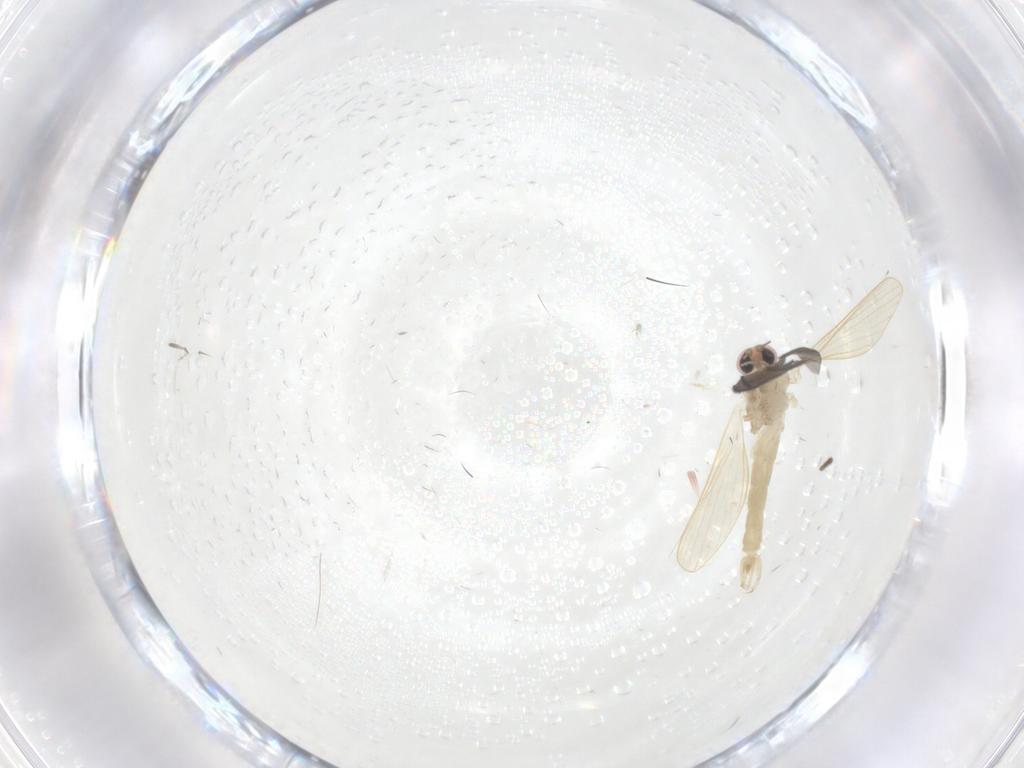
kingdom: Animalia
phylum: Arthropoda
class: Insecta
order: Diptera
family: Psychodidae
